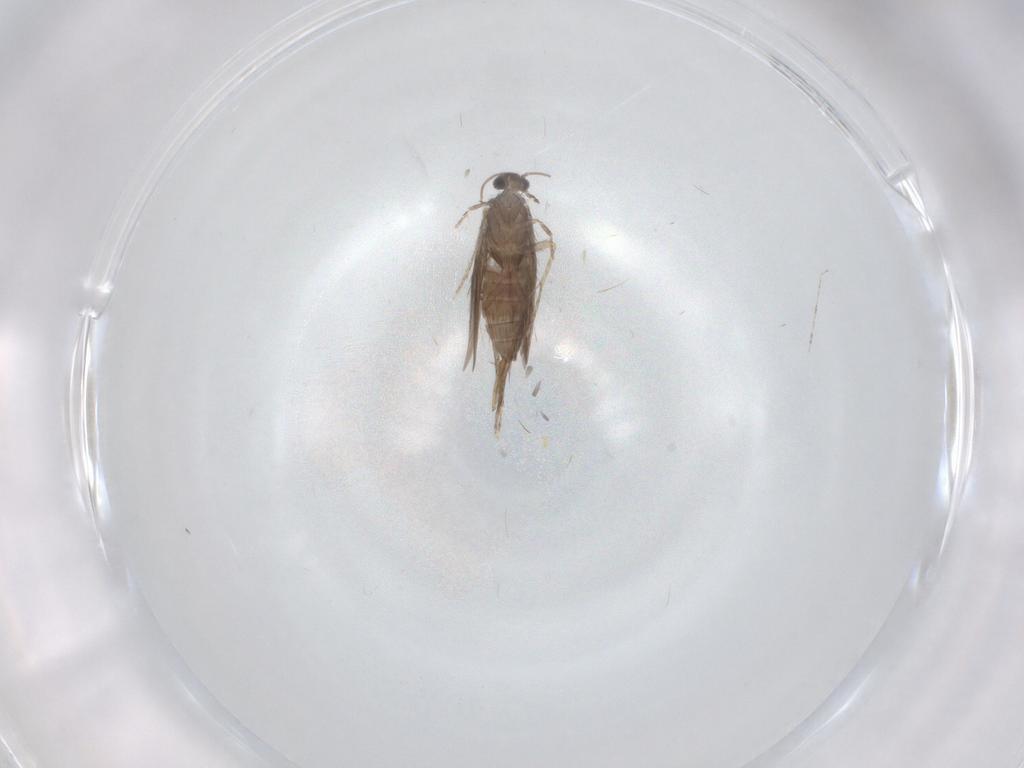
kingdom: Animalia
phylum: Arthropoda
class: Insecta
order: Trichoptera
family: Hydroptilidae
